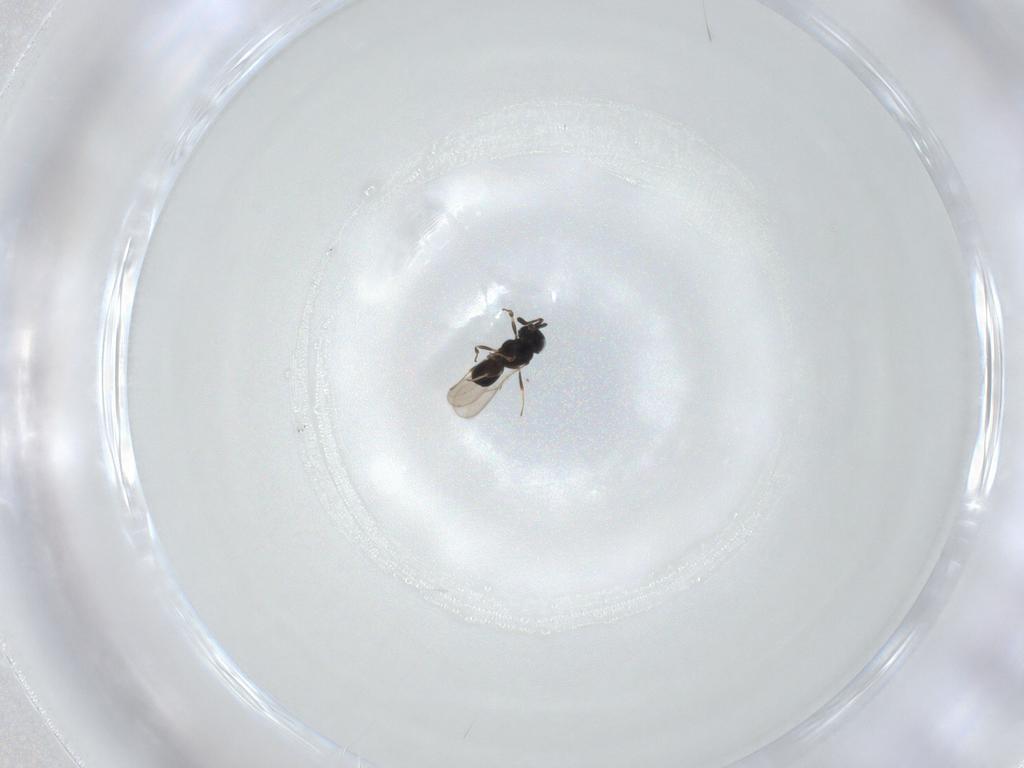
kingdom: Animalia
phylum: Arthropoda
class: Insecta
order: Hymenoptera
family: Scelionidae
